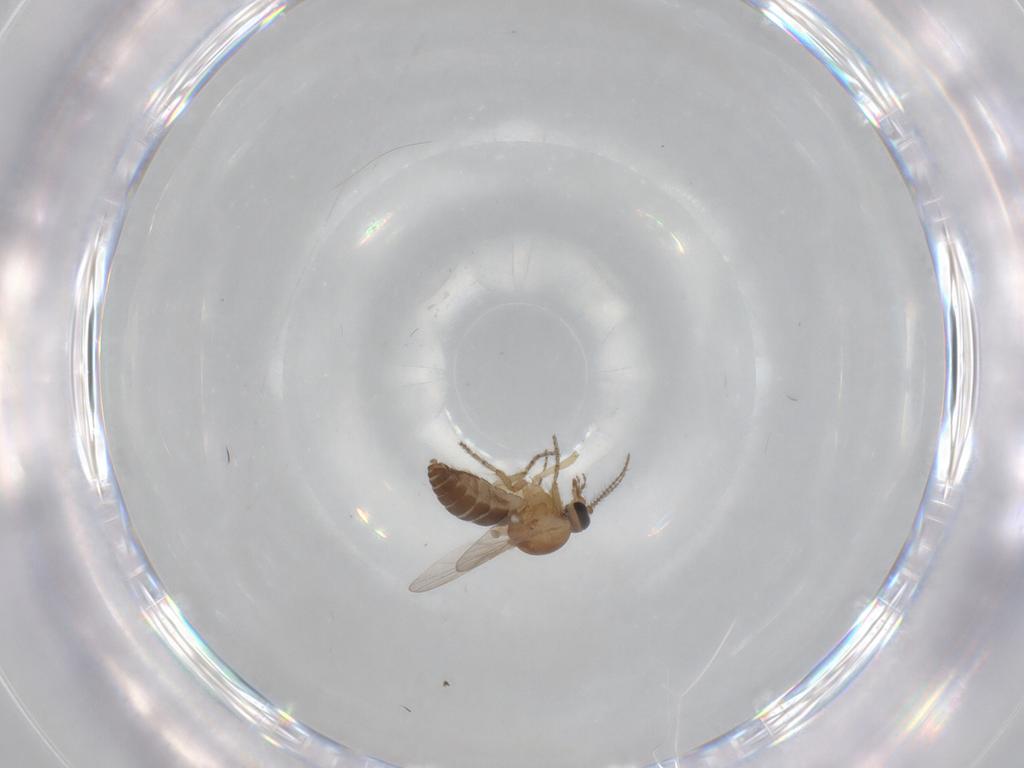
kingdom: Animalia
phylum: Arthropoda
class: Insecta
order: Diptera
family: Ceratopogonidae
